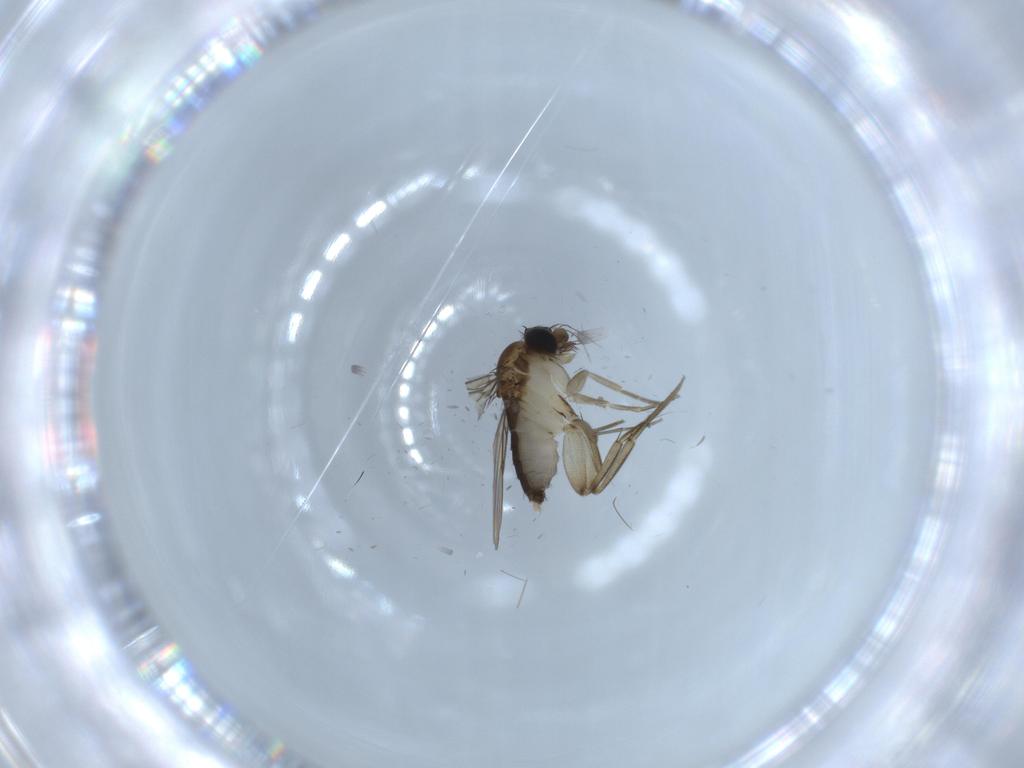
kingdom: Animalia
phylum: Arthropoda
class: Insecta
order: Diptera
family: Phoridae
